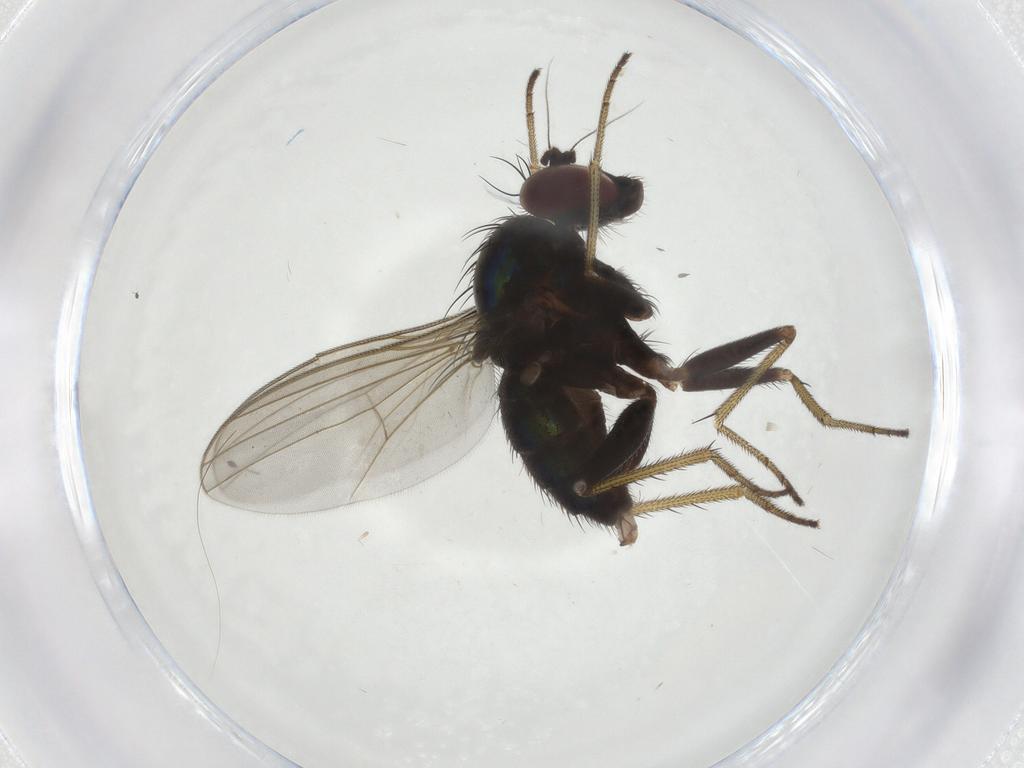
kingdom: Animalia
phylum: Arthropoda
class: Insecta
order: Diptera
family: Dolichopodidae
